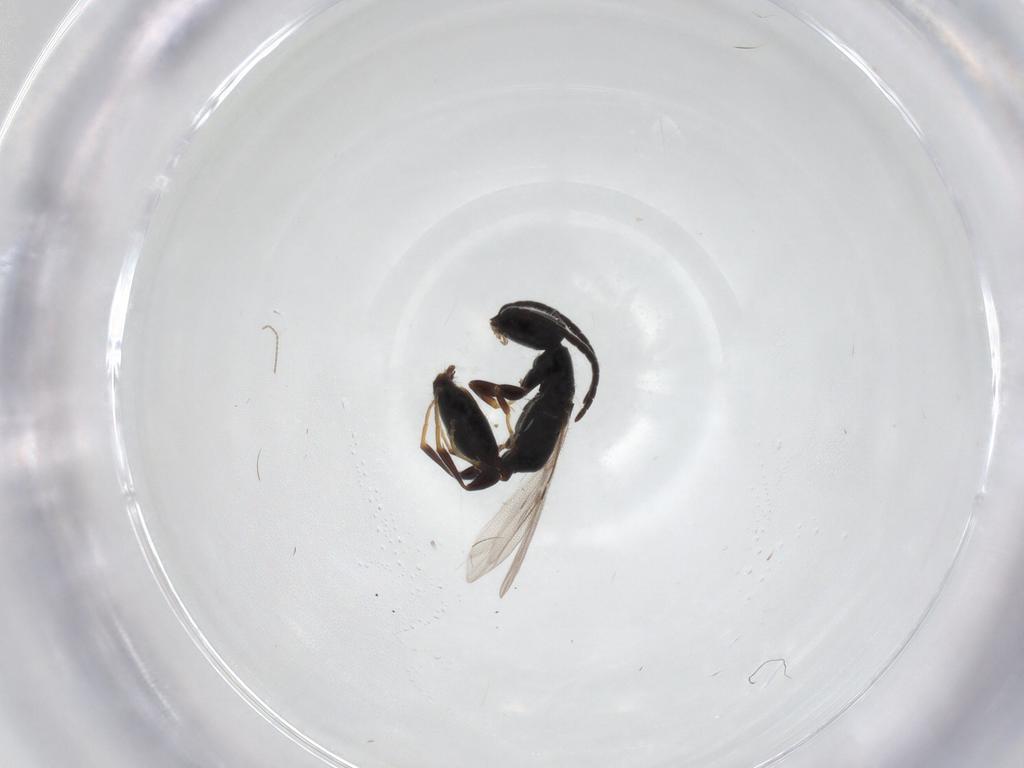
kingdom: Animalia
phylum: Arthropoda
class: Insecta
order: Hymenoptera
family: Bethylidae
